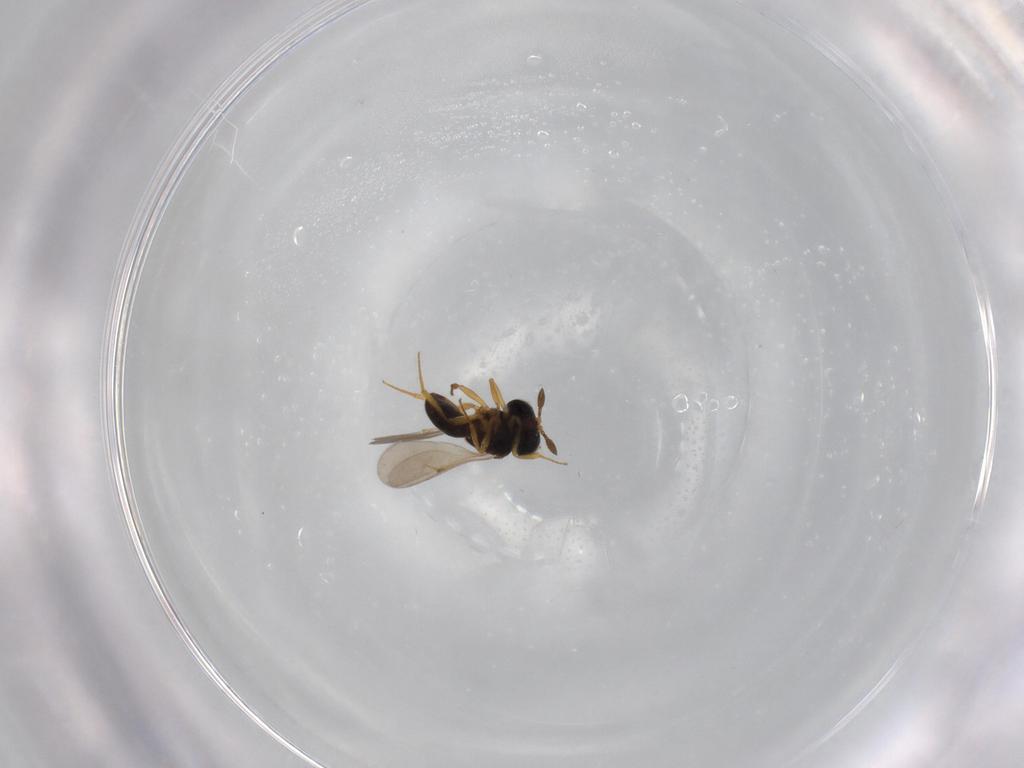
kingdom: Animalia
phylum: Arthropoda
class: Insecta
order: Hymenoptera
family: Scelionidae
